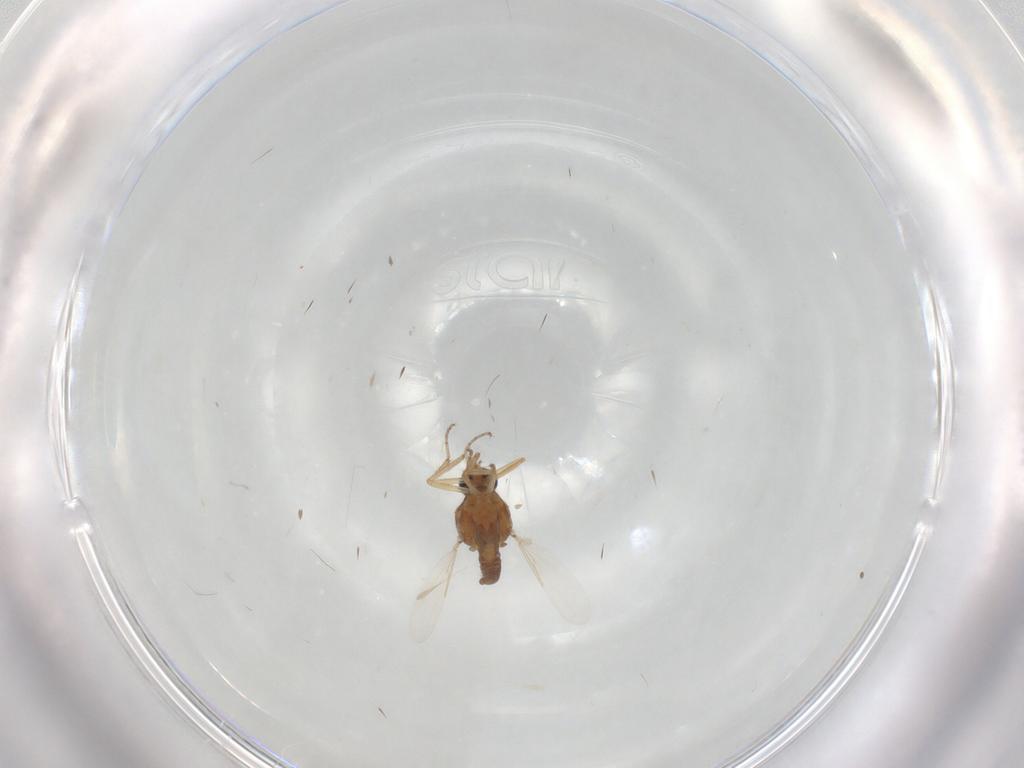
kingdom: Animalia
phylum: Arthropoda
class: Insecta
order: Diptera
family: Ceratopogonidae
